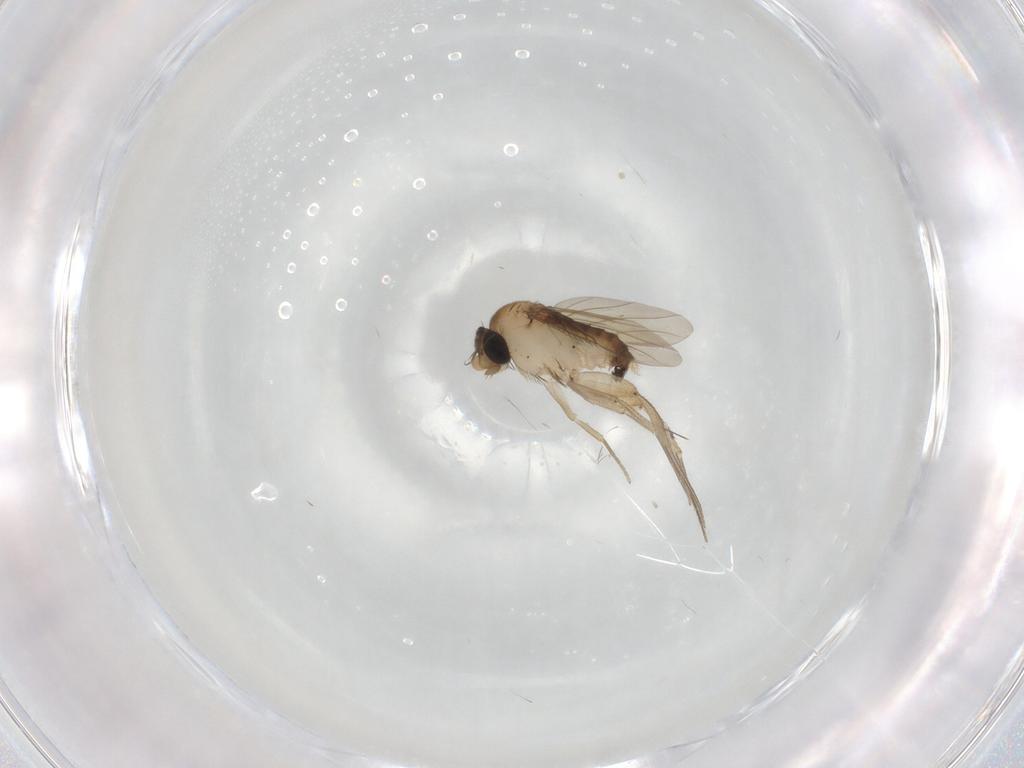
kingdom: Animalia
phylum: Arthropoda
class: Insecta
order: Diptera
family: Phoridae
